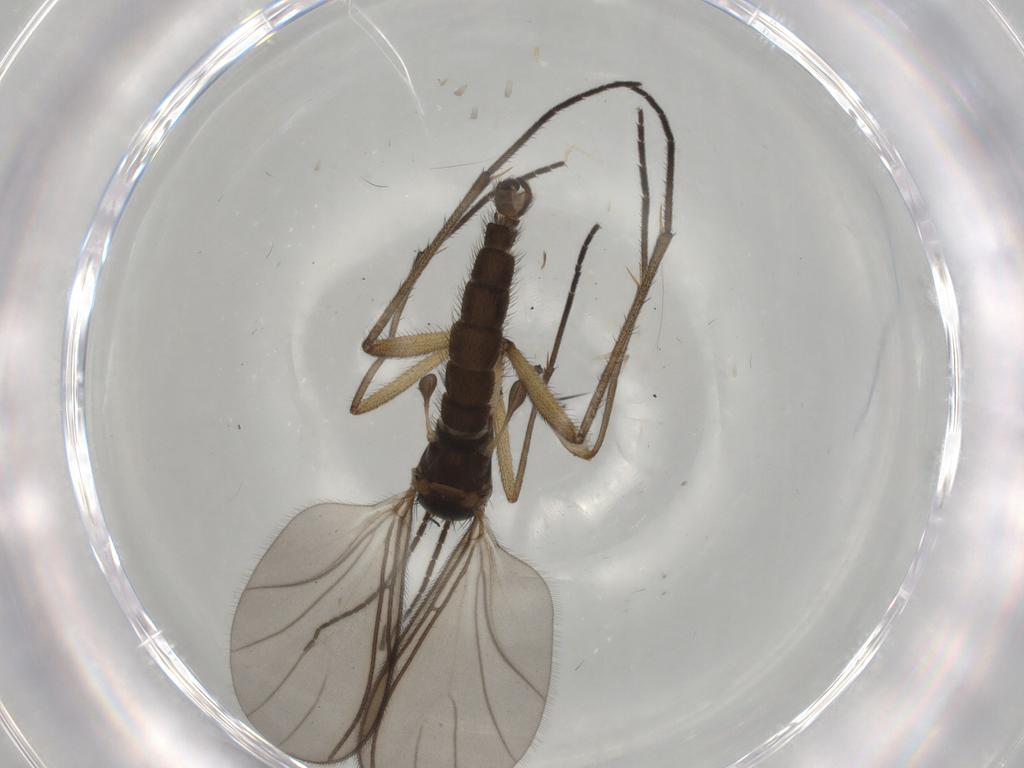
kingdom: Animalia
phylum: Arthropoda
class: Insecta
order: Diptera
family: Sciaridae
